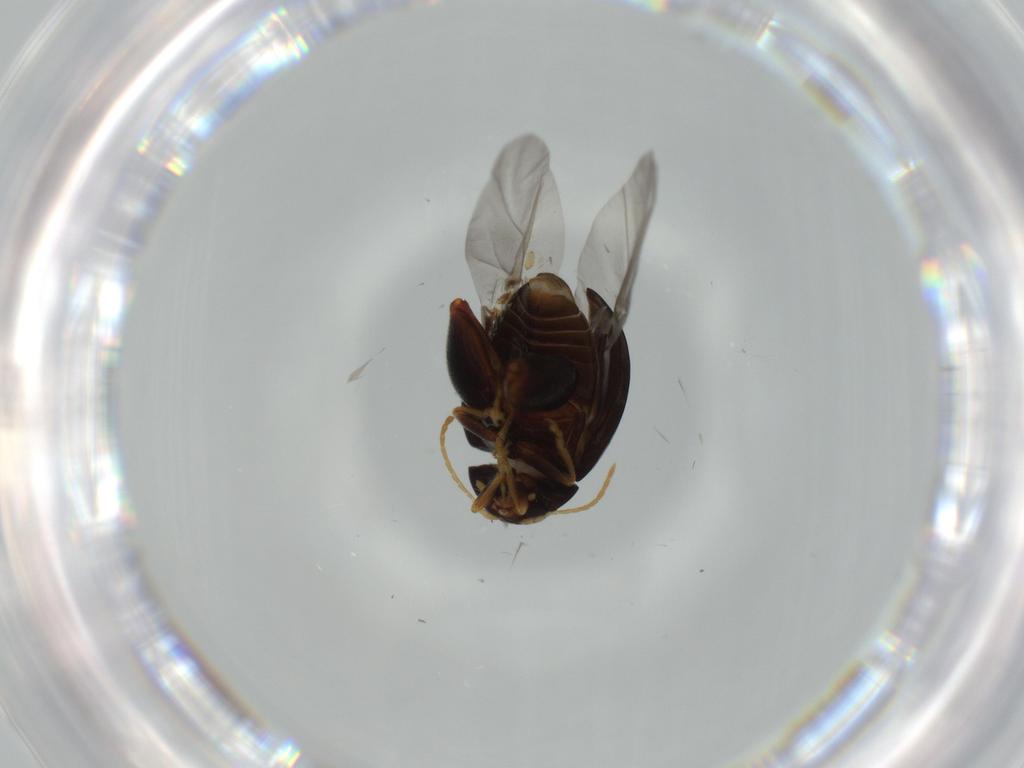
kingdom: Animalia
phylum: Arthropoda
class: Insecta
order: Coleoptera
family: Chrysomelidae
